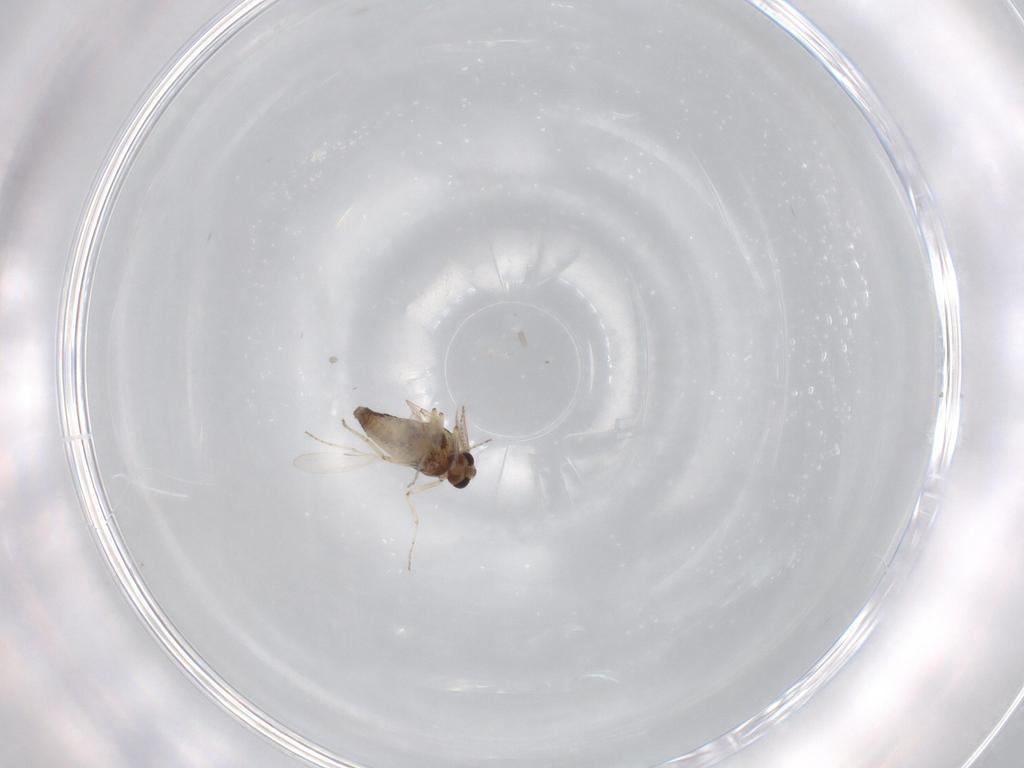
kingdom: Animalia
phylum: Arthropoda
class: Insecta
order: Diptera
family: Ceratopogonidae
